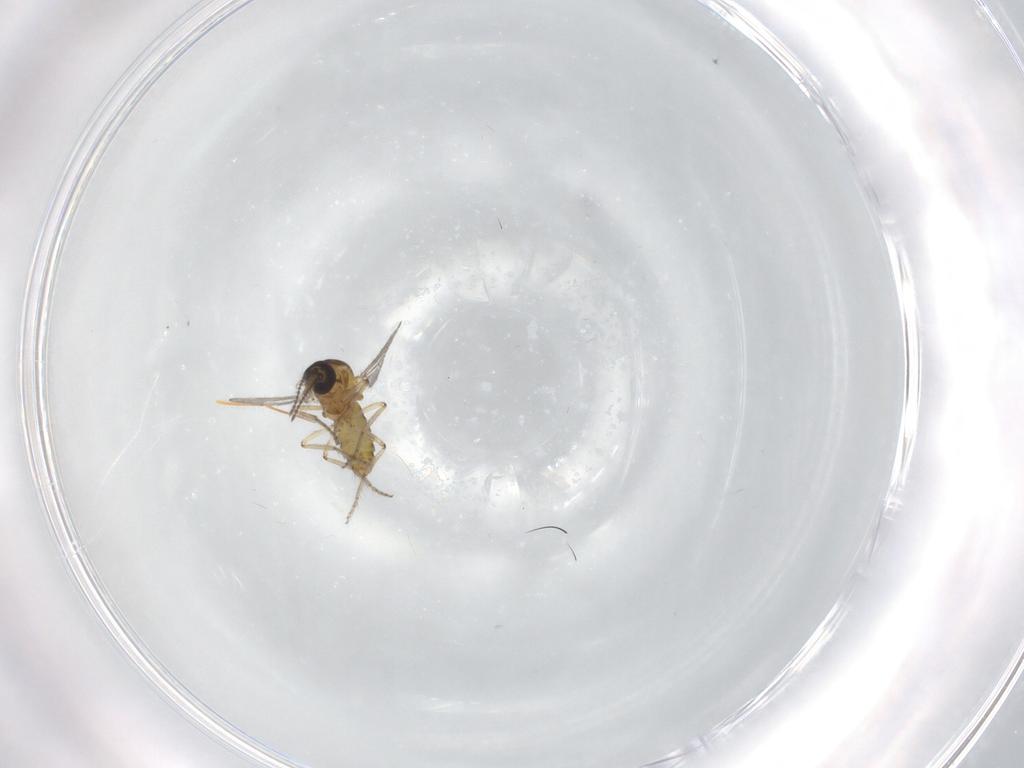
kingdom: Animalia
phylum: Arthropoda
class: Insecta
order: Diptera
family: Ceratopogonidae
